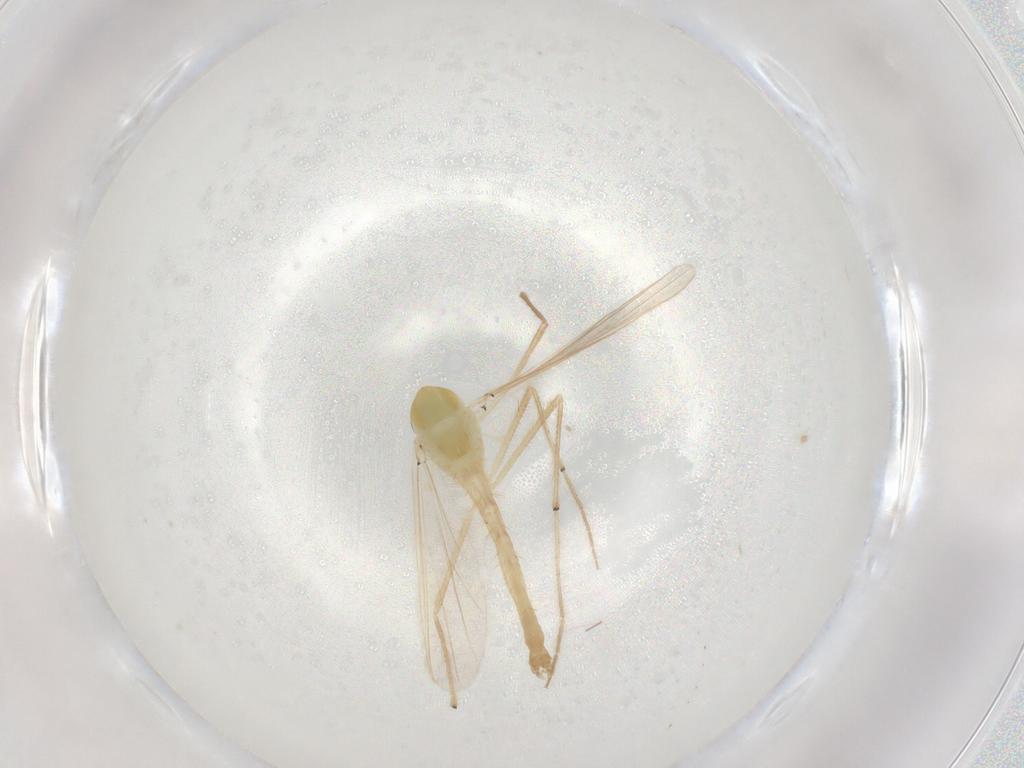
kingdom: Animalia
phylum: Arthropoda
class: Insecta
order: Diptera
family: Chironomidae
